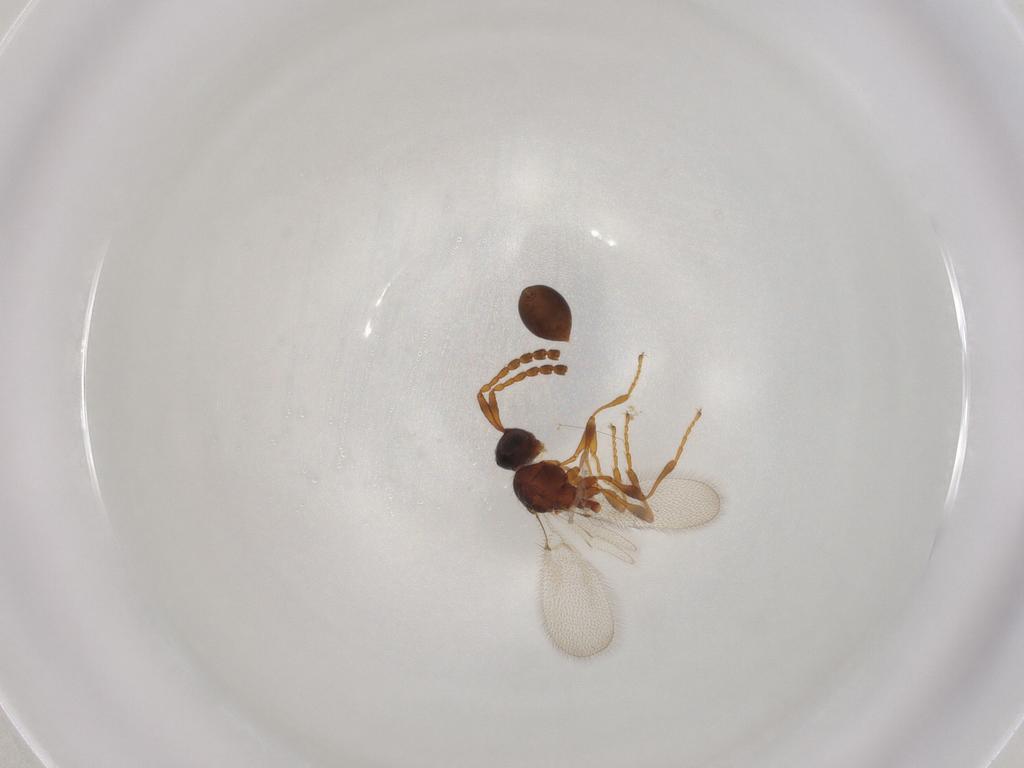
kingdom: Animalia
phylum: Arthropoda
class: Insecta
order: Hymenoptera
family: Diapriidae
